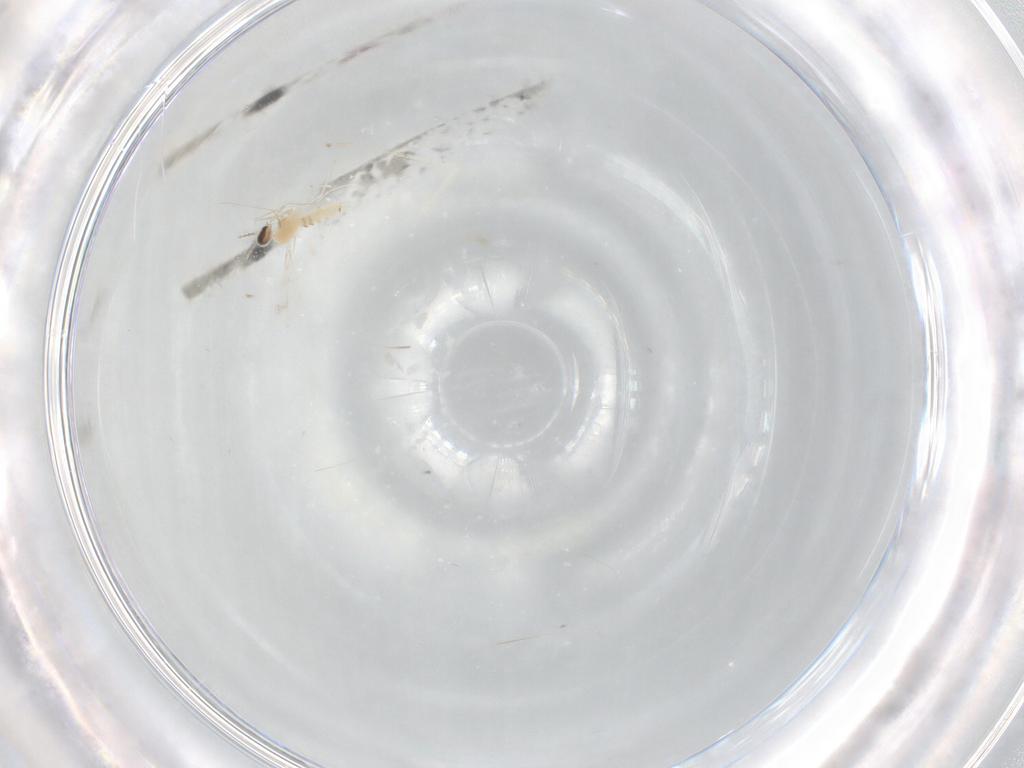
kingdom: Animalia
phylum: Arthropoda
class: Insecta
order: Diptera
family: Cecidomyiidae
